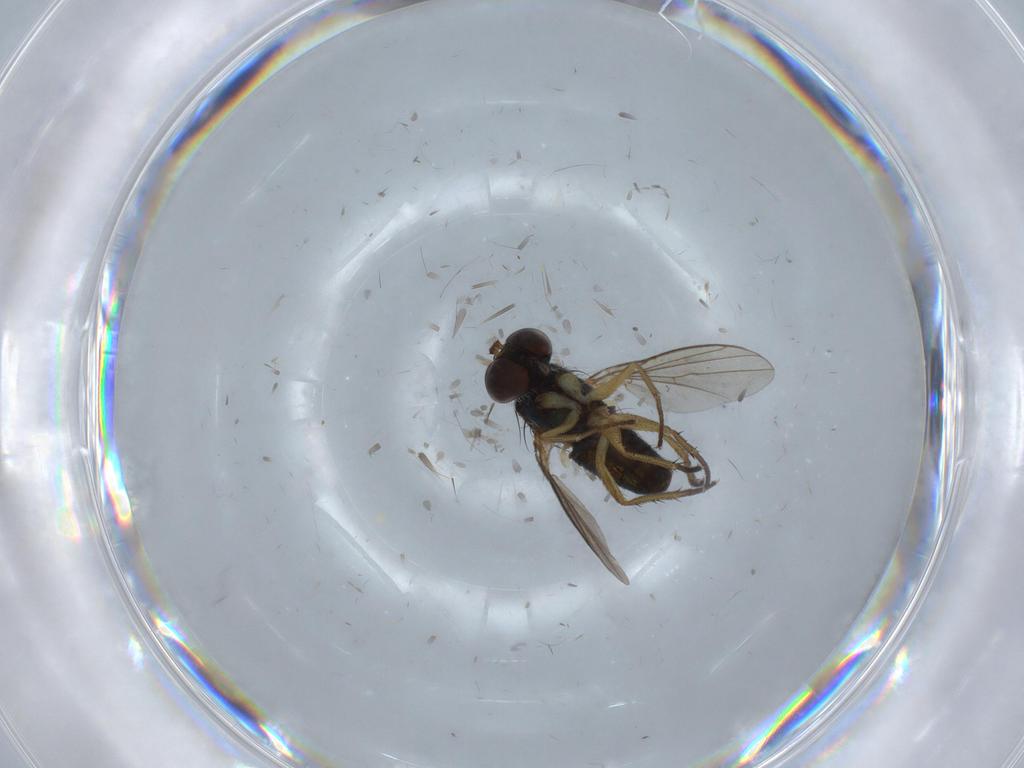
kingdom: Animalia
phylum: Arthropoda
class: Insecta
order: Diptera
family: Dolichopodidae
